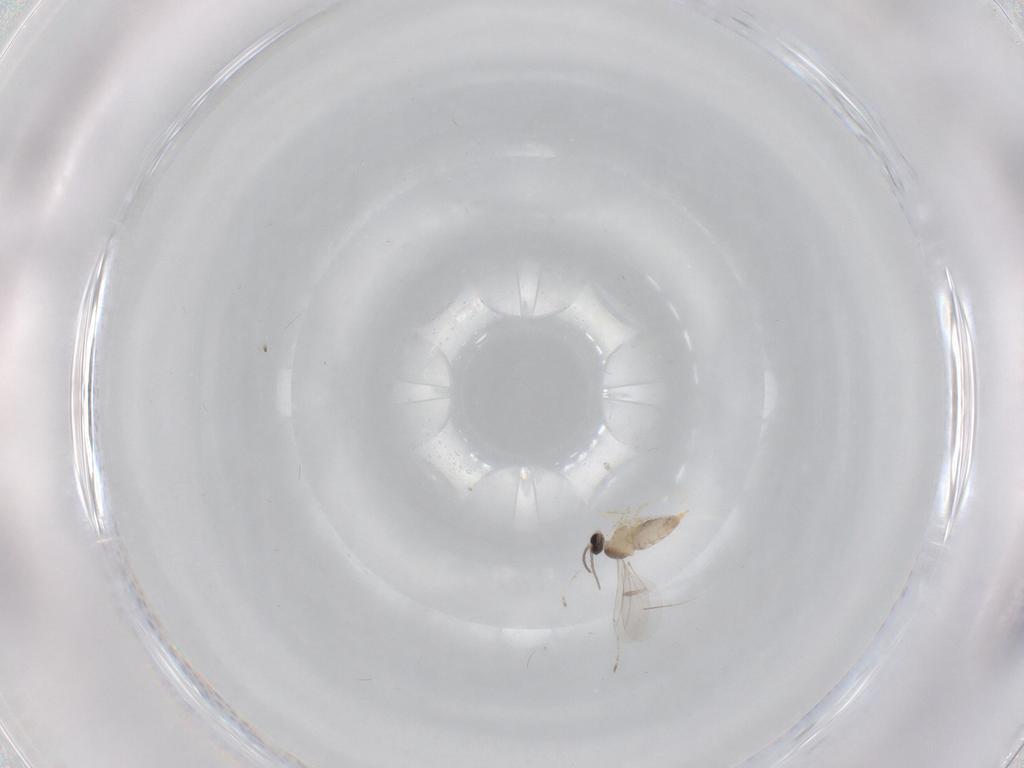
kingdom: Animalia
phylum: Arthropoda
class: Insecta
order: Diptera
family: Cecidomyiidae
